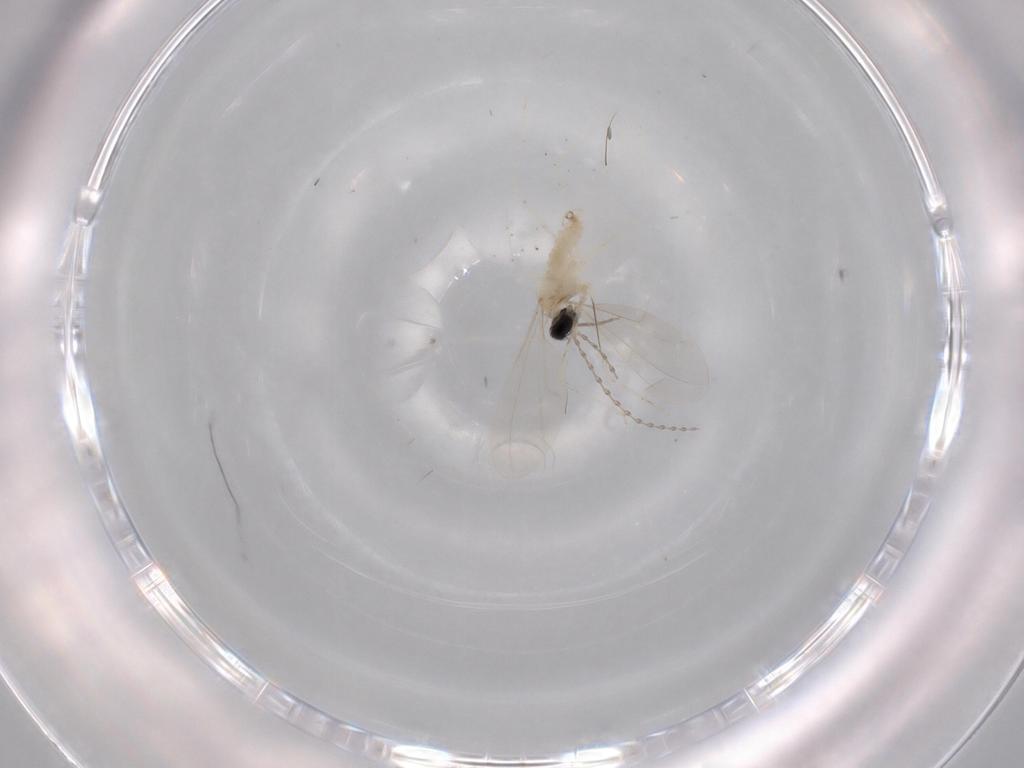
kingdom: Animalia
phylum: Arthropoda
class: Insecta
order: Diptera
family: Cecidomyiidae
